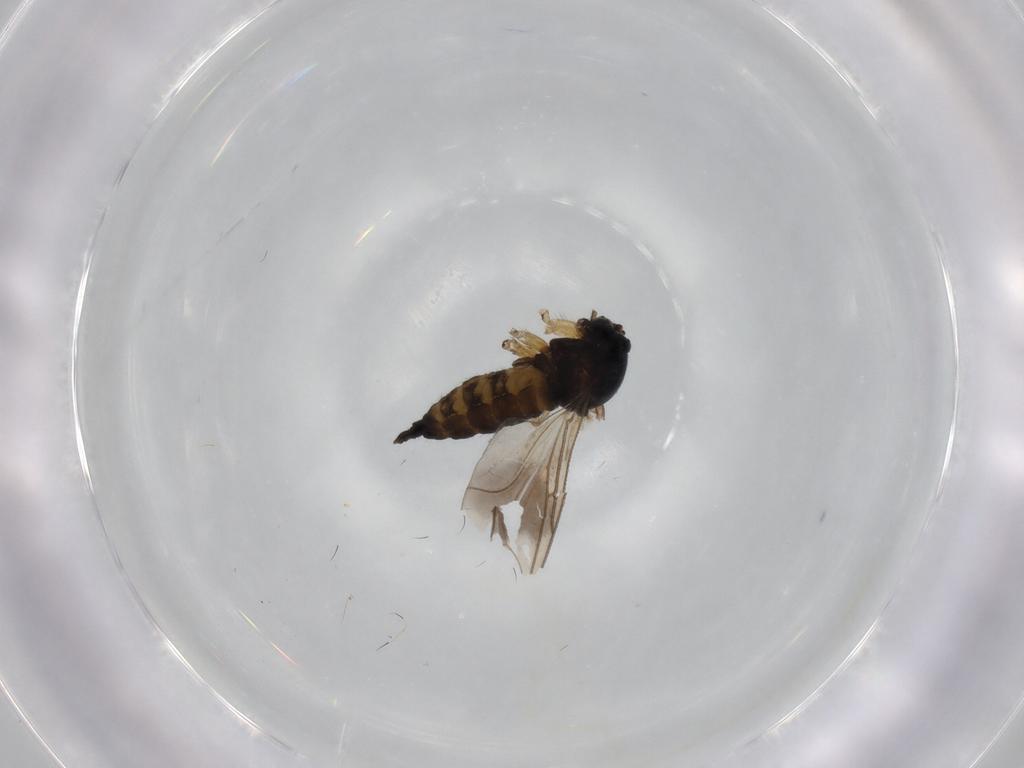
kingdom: Animalia
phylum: Arthropoda
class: Insecta
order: Diptera
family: Sciaridae
